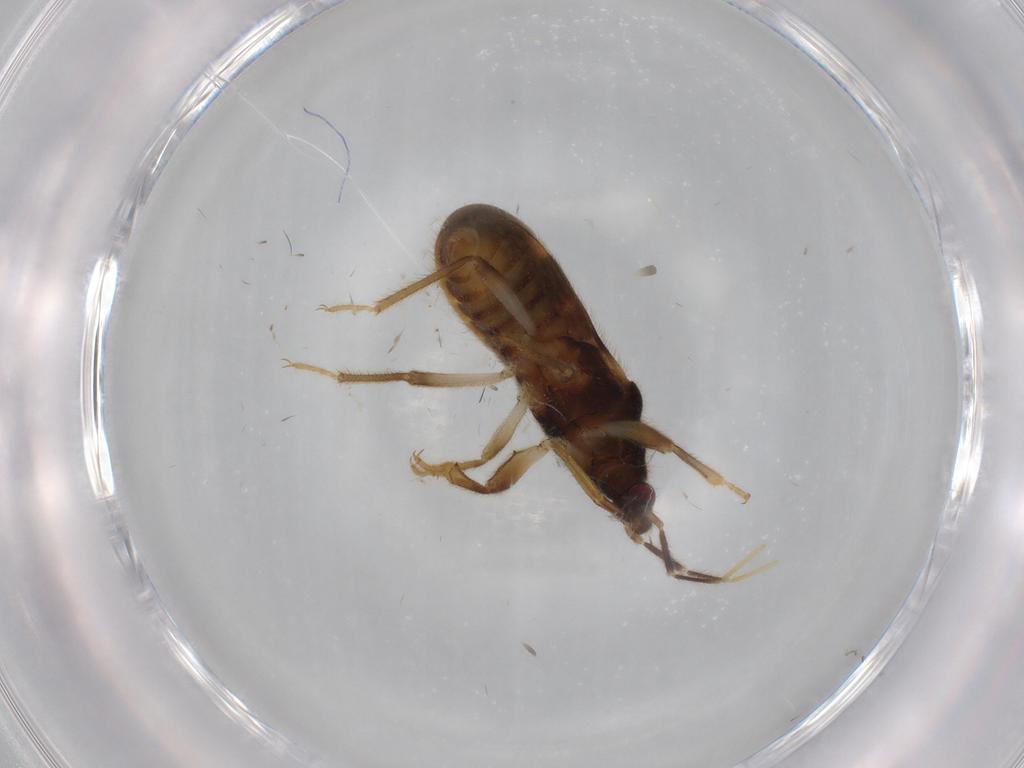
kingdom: Animalia
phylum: Arthropoda
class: Insecta
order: Hemiptera
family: Nabidae
